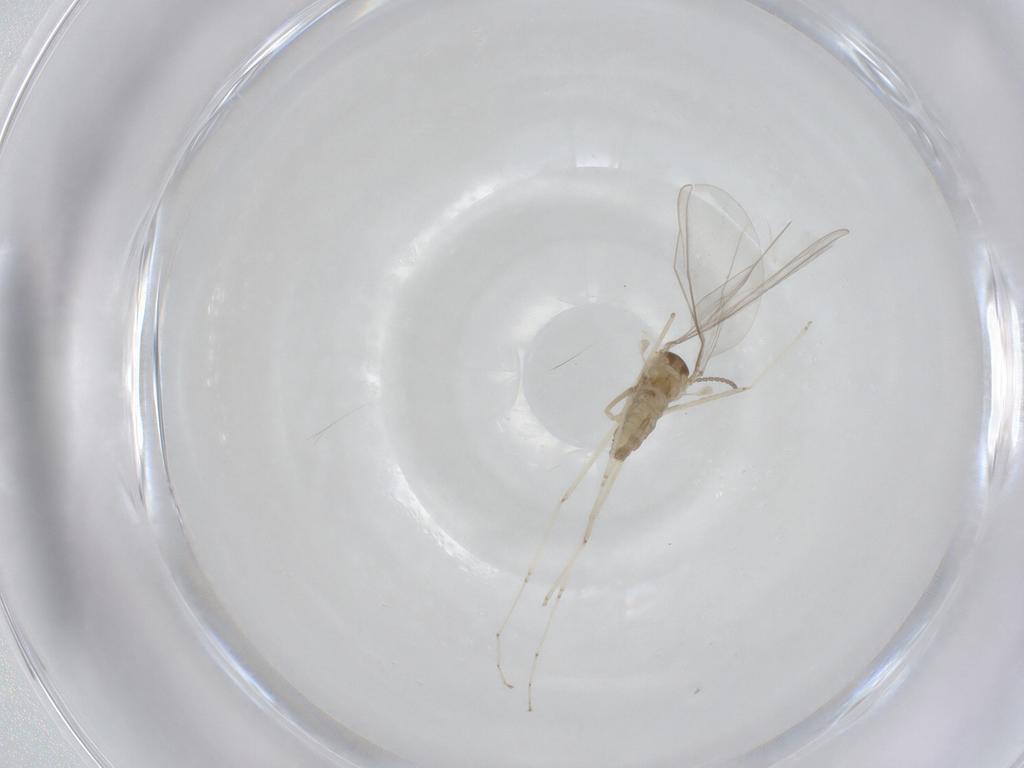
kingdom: Animalia
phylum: Arthropoda
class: Insecta
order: Diptera
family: Cecidomyiidae
